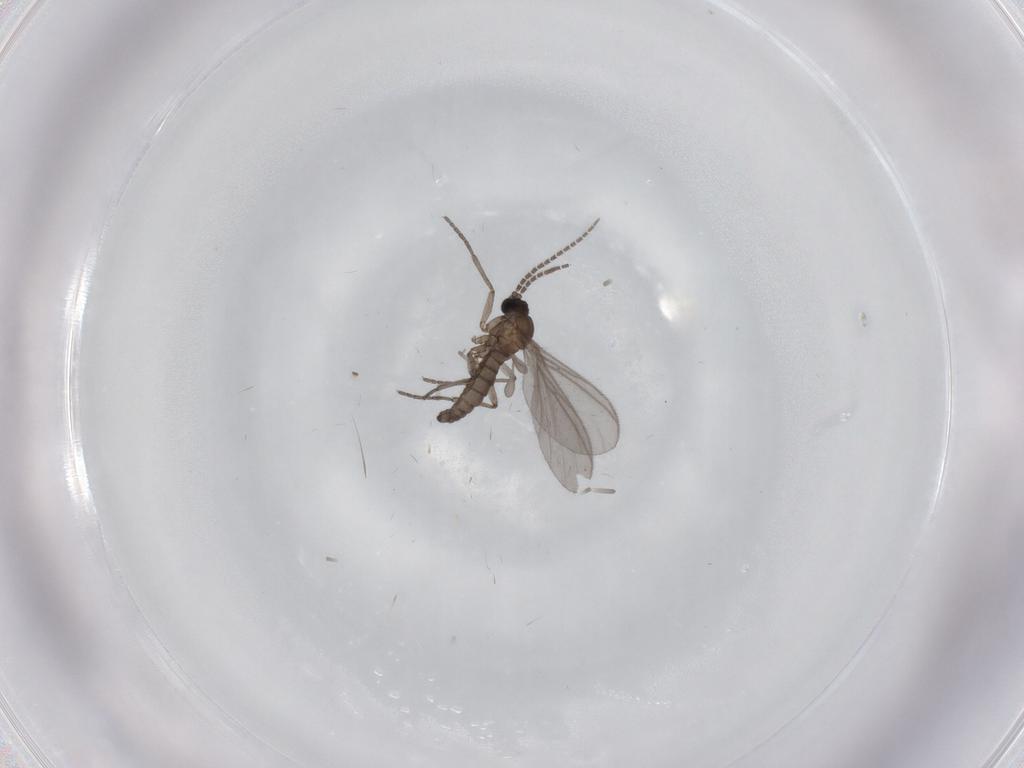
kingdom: Animalia
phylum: Arthropoda
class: Insecta
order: Diptera
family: Sciaridae
